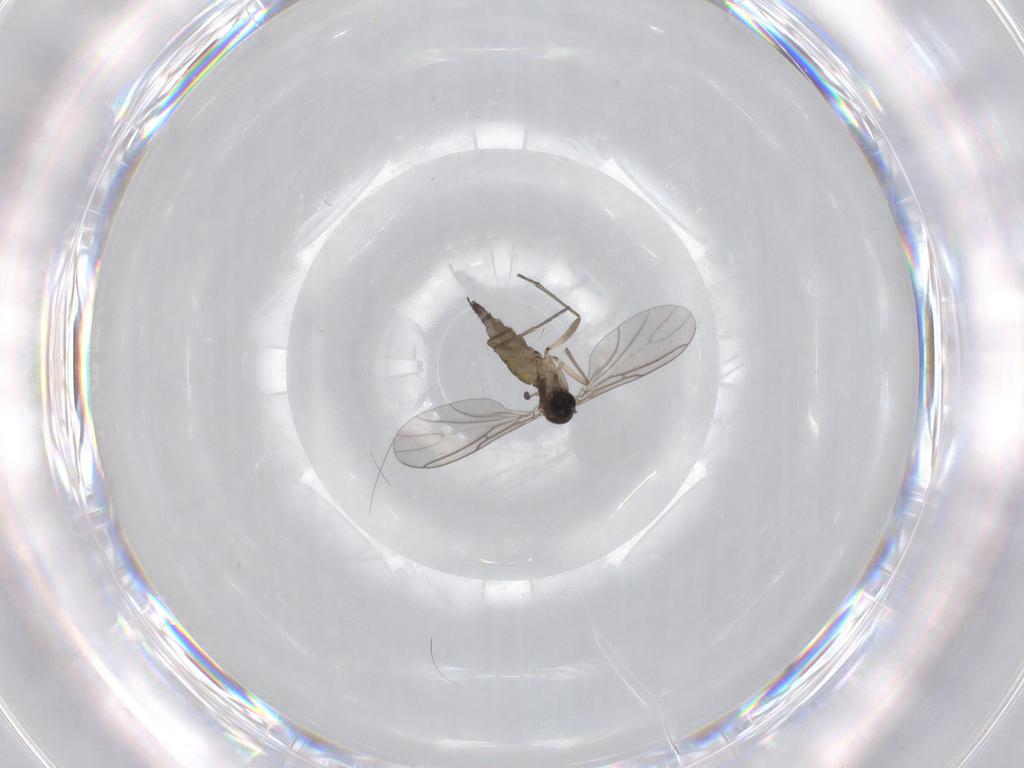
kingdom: Animalia
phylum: Arthropoda
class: Insecta
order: Diptera
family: Sciaridae
